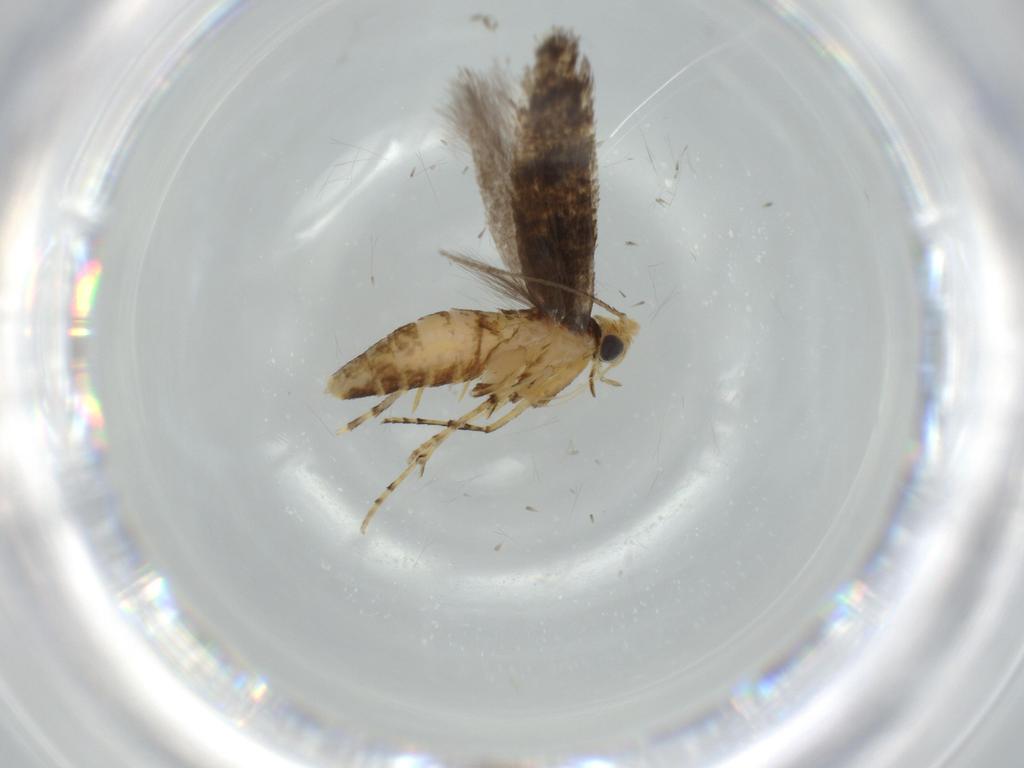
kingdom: Animalia
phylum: Arthropoda
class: Insecta
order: Lepidoptera
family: Argyresthiidae
